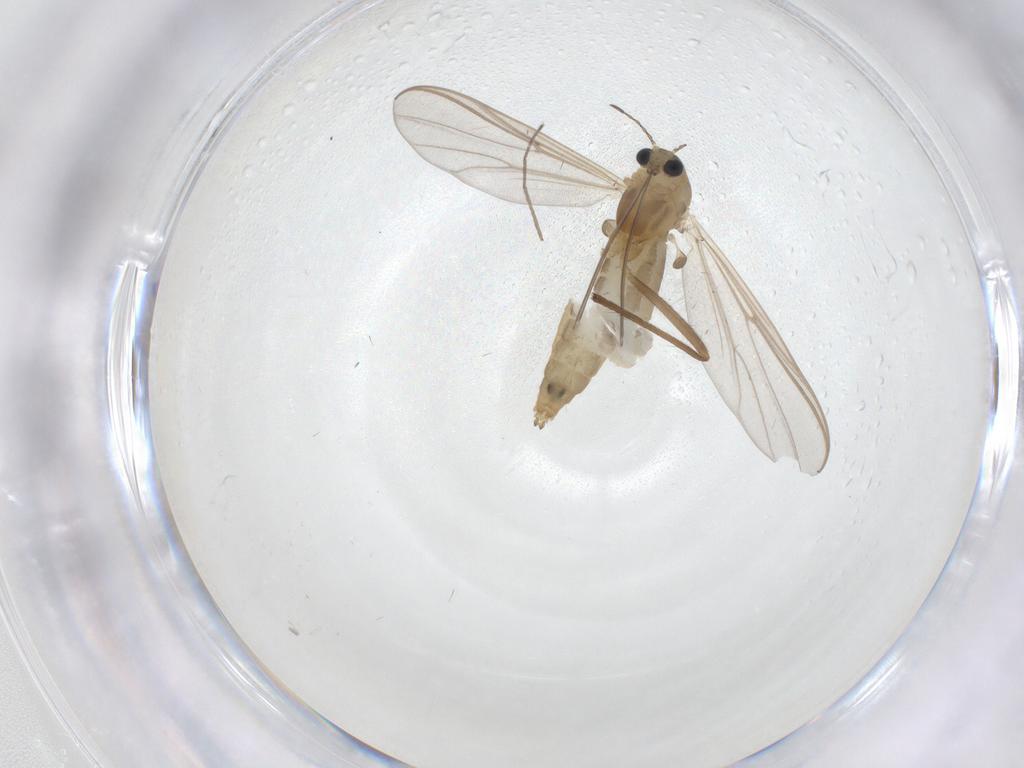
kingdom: Animalia
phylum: Arthropoda
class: Insecta
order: Diptera
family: Chironomidae
